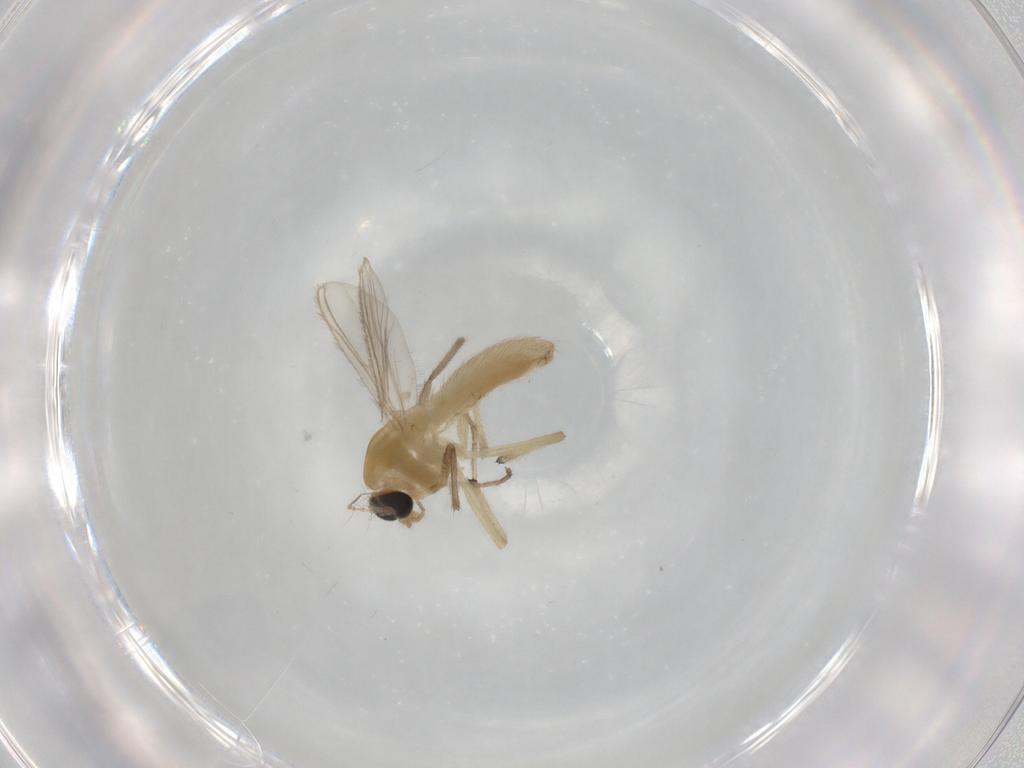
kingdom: Animalia
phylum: Arthropoda
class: Insecta
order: Diptera
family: Chironomidae
